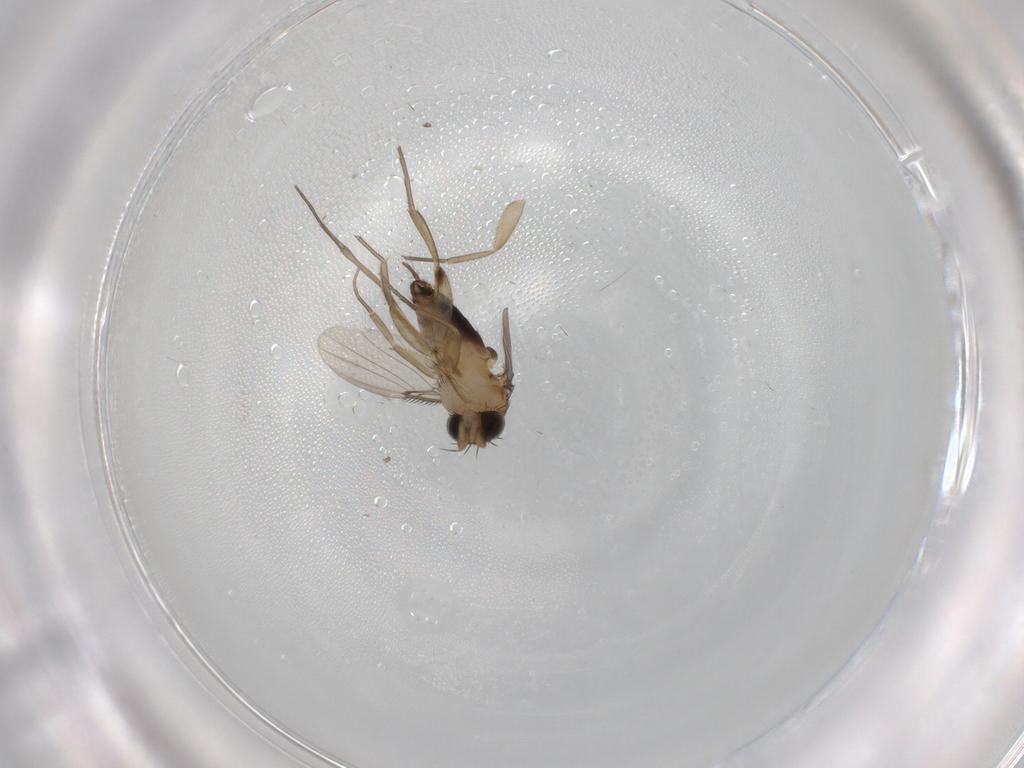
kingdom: Animalia
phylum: Arthropoda
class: Insecta
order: Diptera
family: Phoridae
